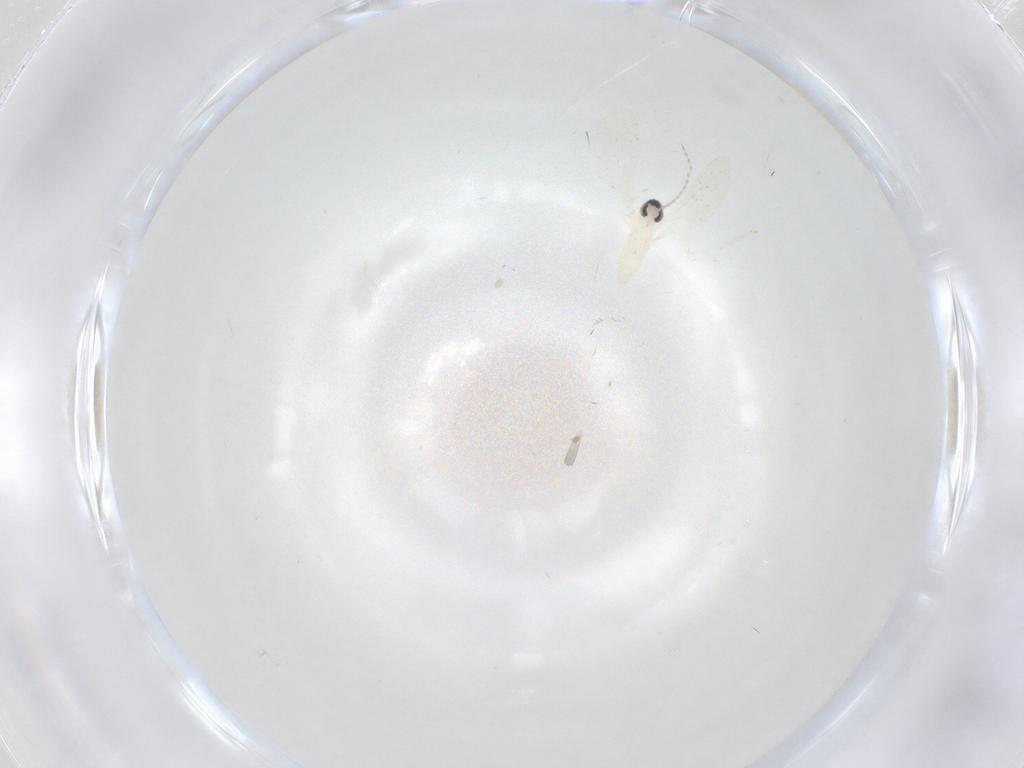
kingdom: Animalia
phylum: Arthropoda
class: Insecta
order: Diptera
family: Cecidomyiidae
